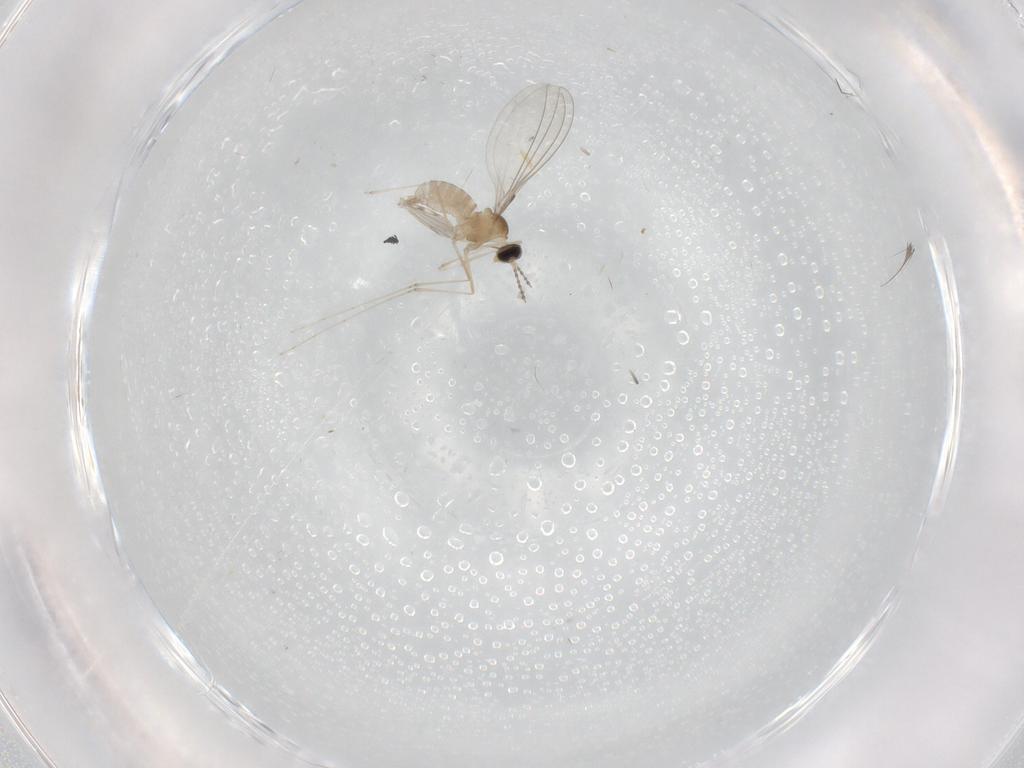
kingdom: Animalia
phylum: Arthropoda
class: Insecta
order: Diptera
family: Cecidomyiidae
